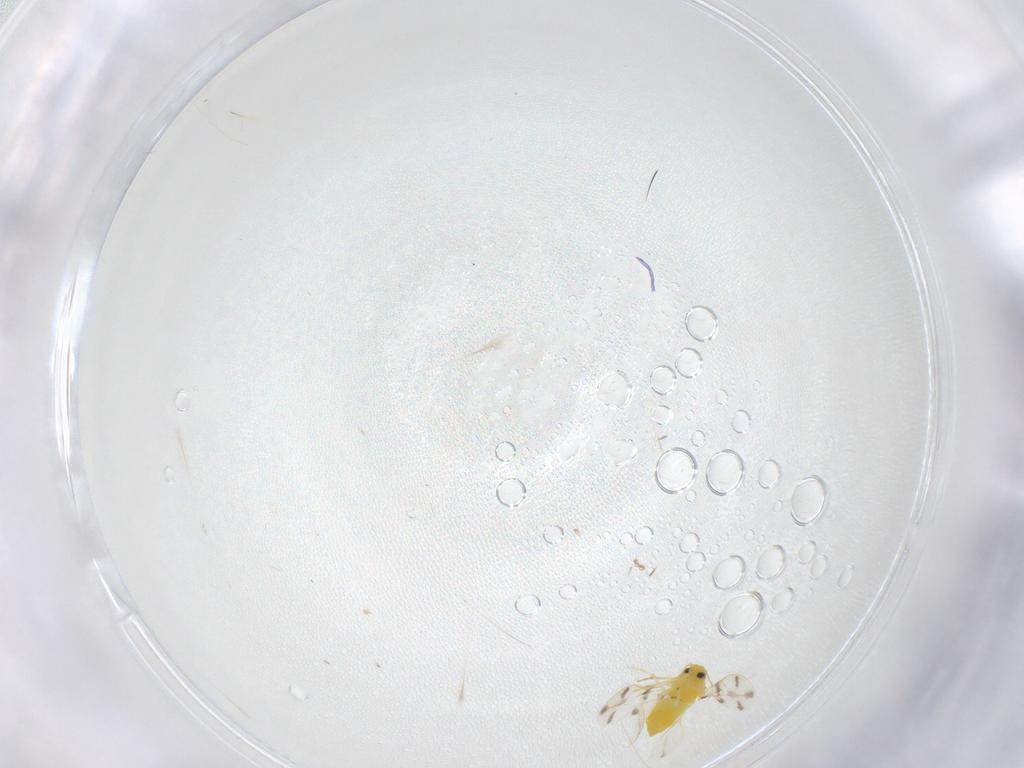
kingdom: Animalia
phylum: Arthropoda
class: Insecta
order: Hemiptera
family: Aleyrodidae
